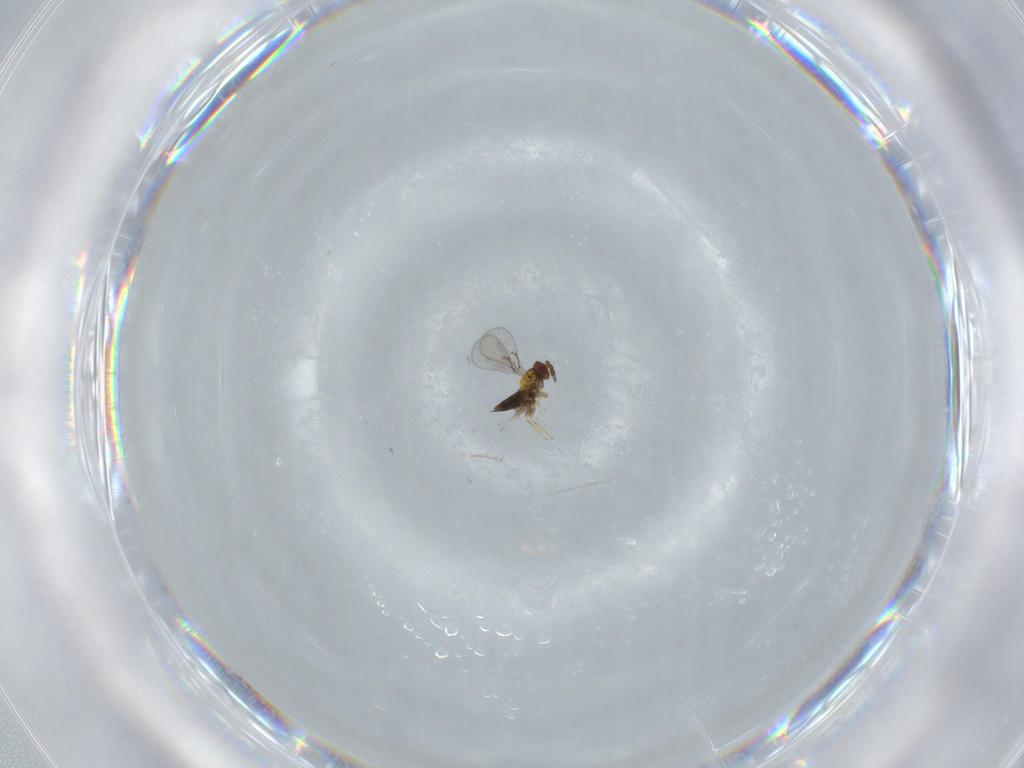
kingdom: Animalia
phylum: Arthropoda
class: Insecta
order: Hymenoptera
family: Trichogrammatidae
